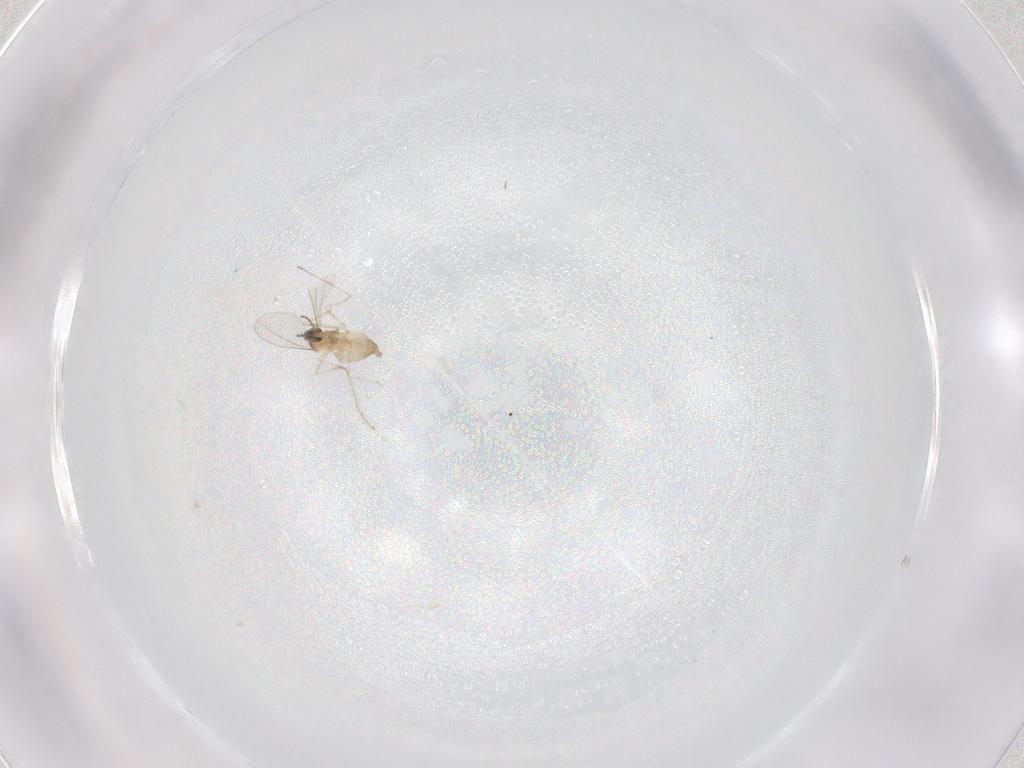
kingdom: Animalia
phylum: Arthropoda
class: Insecta
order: Diptera
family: Cecidomyiidae
